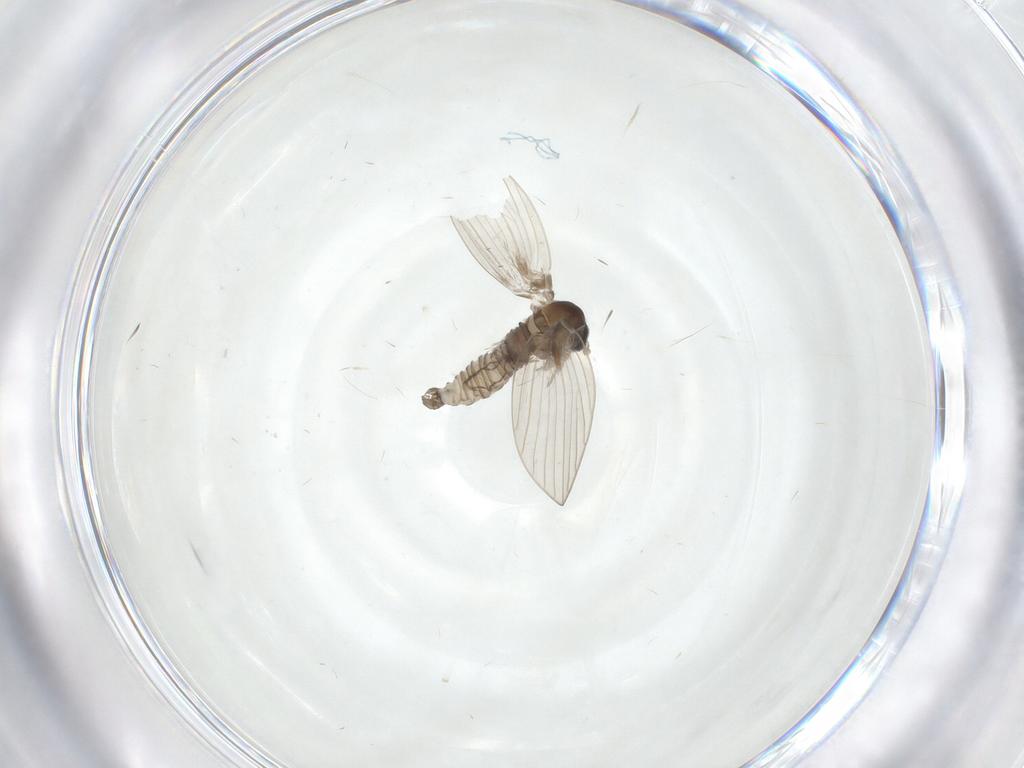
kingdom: Animalia
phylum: Arthropoda
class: Insecta
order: Diptera
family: Psychodidae
